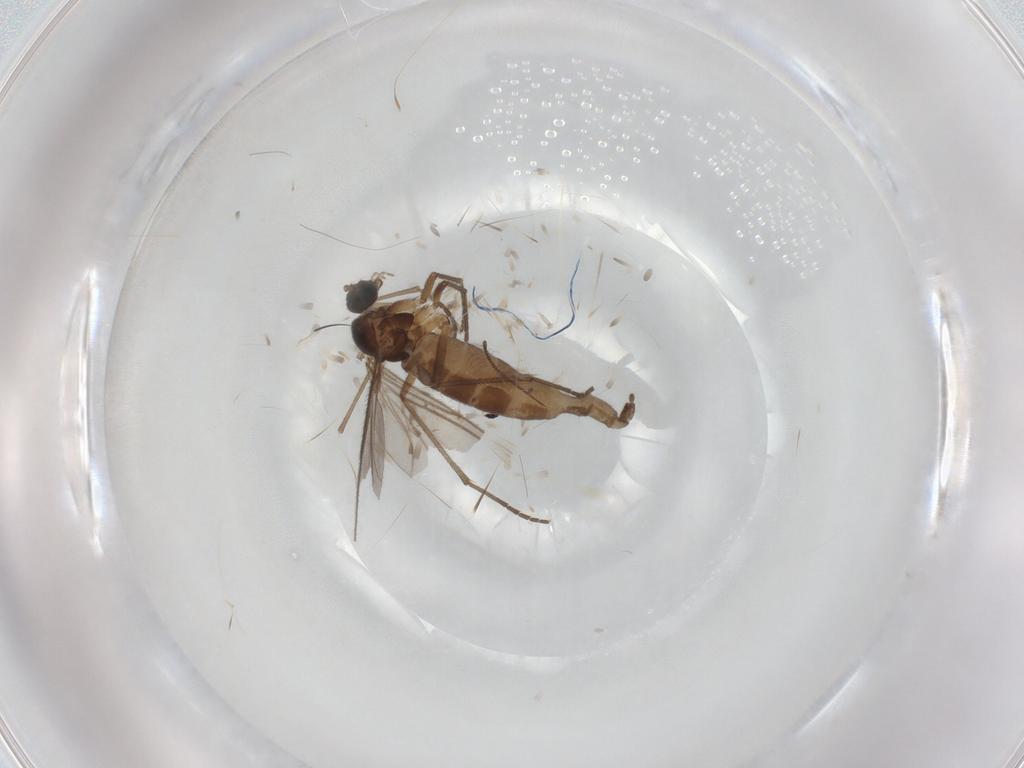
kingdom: Animalia
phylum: Arthropoda
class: Insecta
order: Diptera
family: Sciaridae
